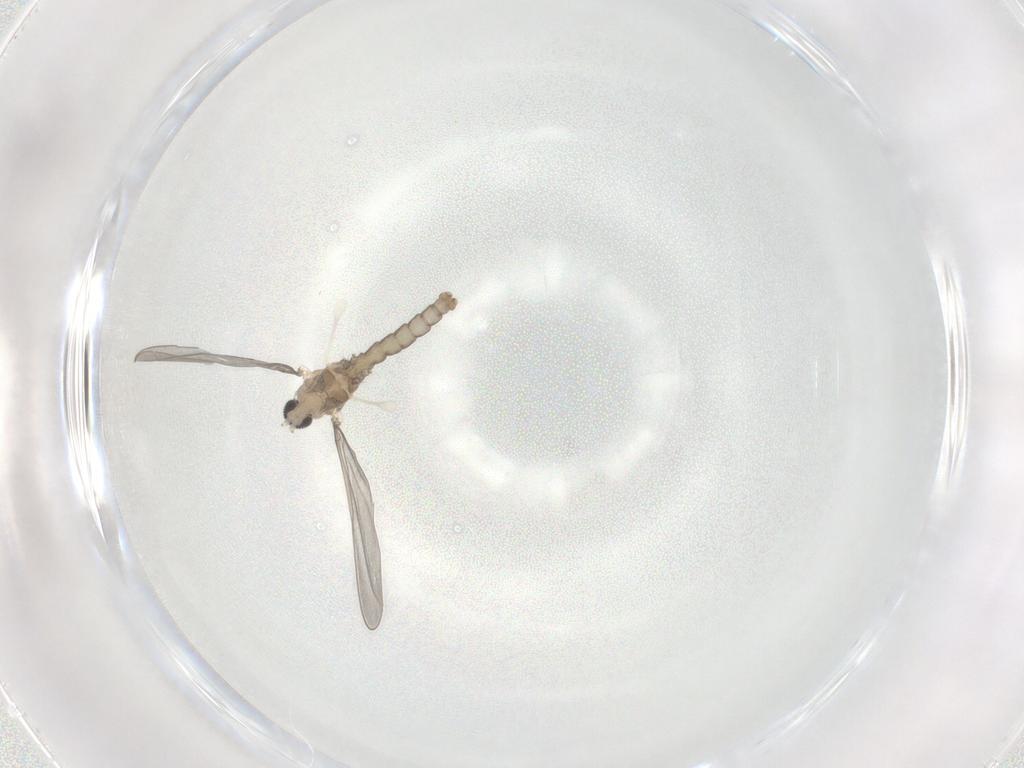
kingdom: Animalia
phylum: Arthropoda
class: Insecta
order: Diptera
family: Cecidomyiidae
